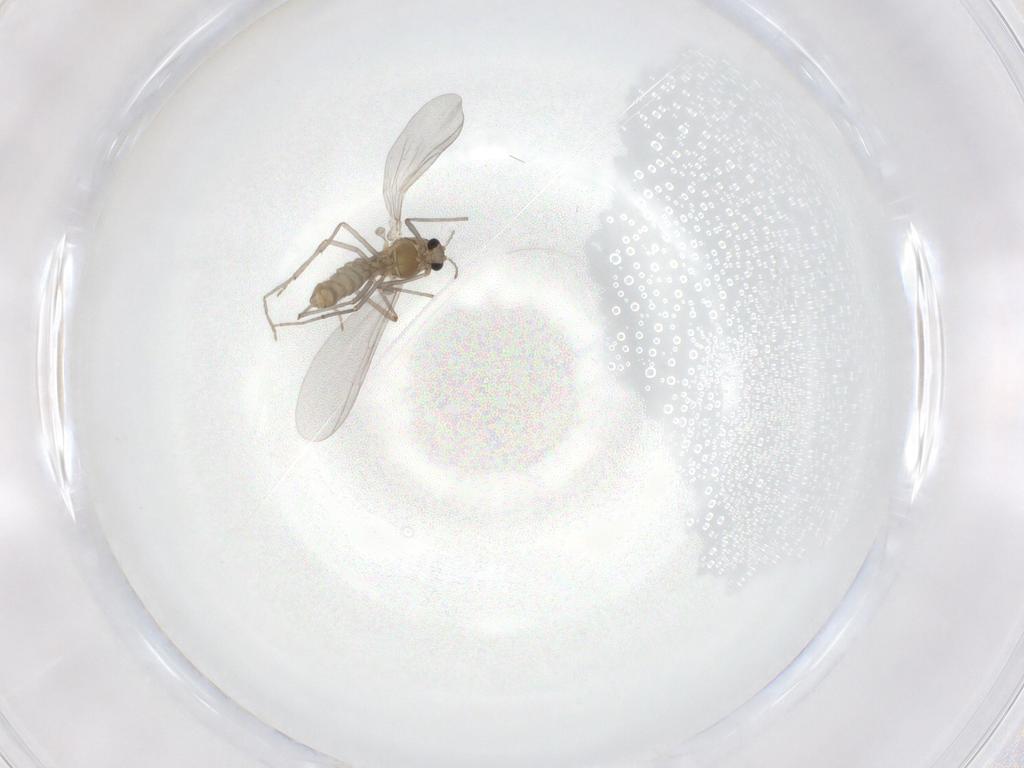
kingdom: Animalia
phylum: Arthropoda
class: Insecta
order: Diptera
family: Chironomidae
